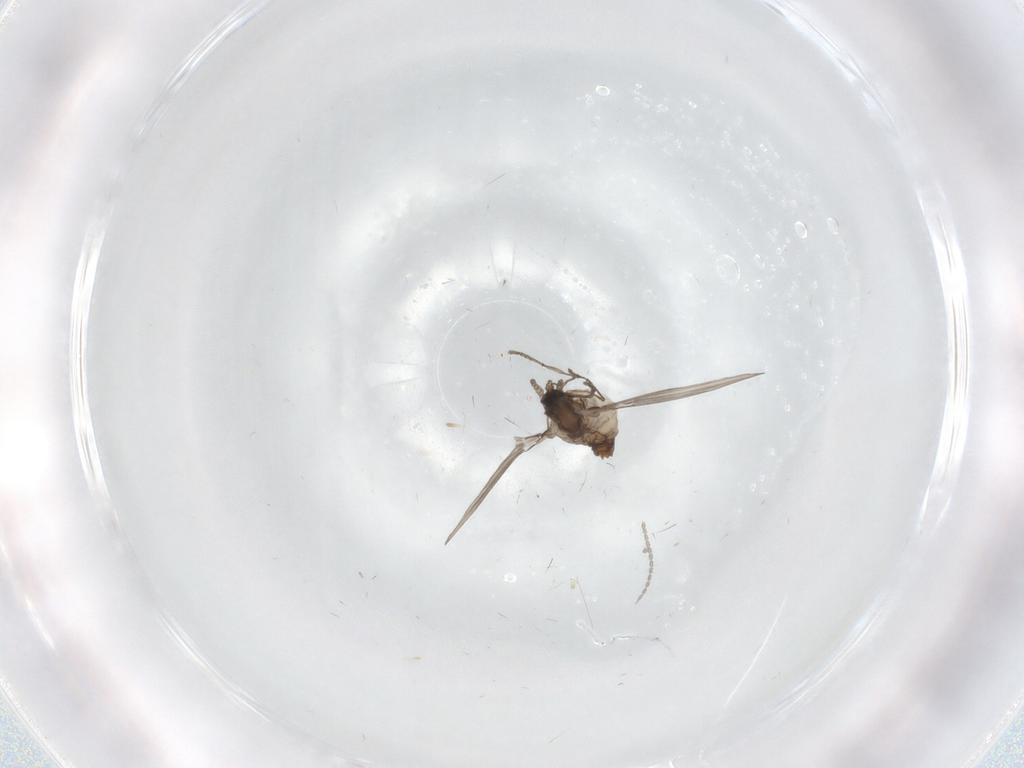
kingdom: Animalia
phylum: Arthropoda
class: Insecta
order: Diptera
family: Psychodidae
